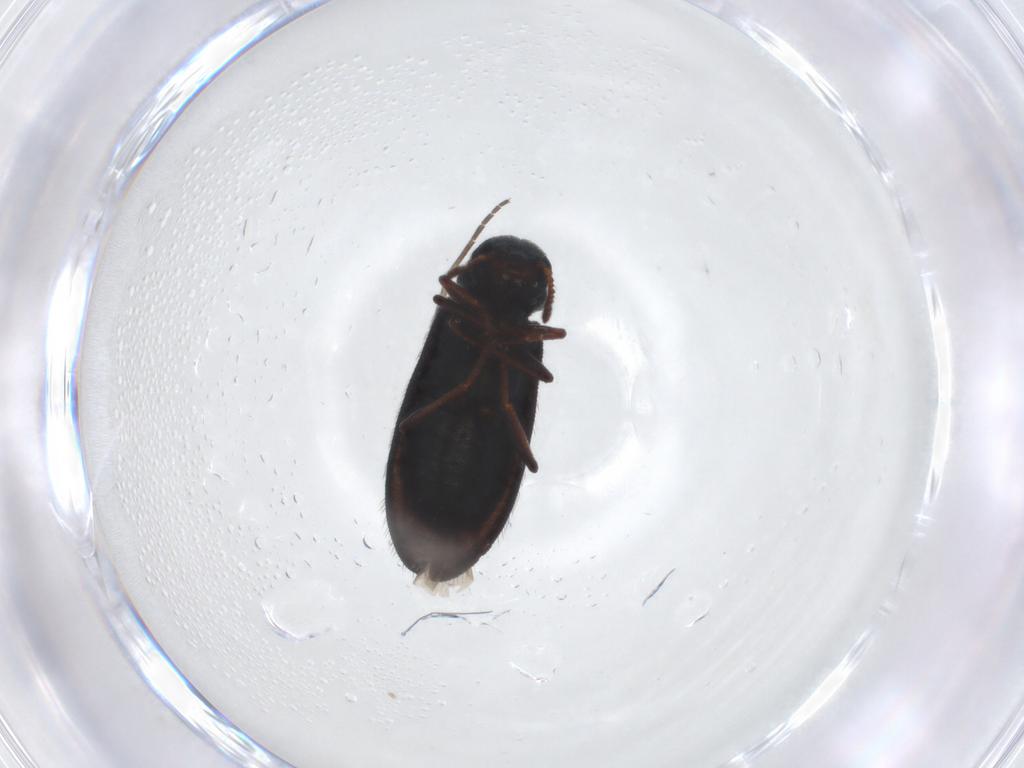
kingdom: Animalia
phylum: Arthropoda
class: Insecta
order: Coleoptera
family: Melyridae
